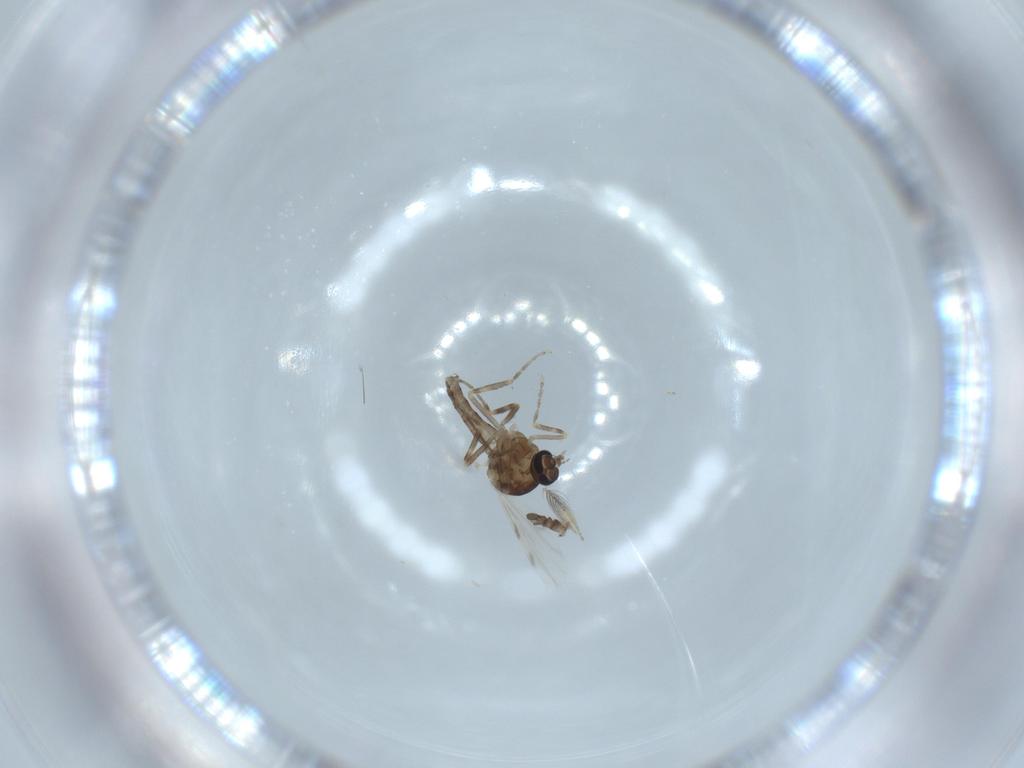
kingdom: Animalia
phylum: Arthropoda
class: Insecta
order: Diptera
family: Ceratopogonidae
